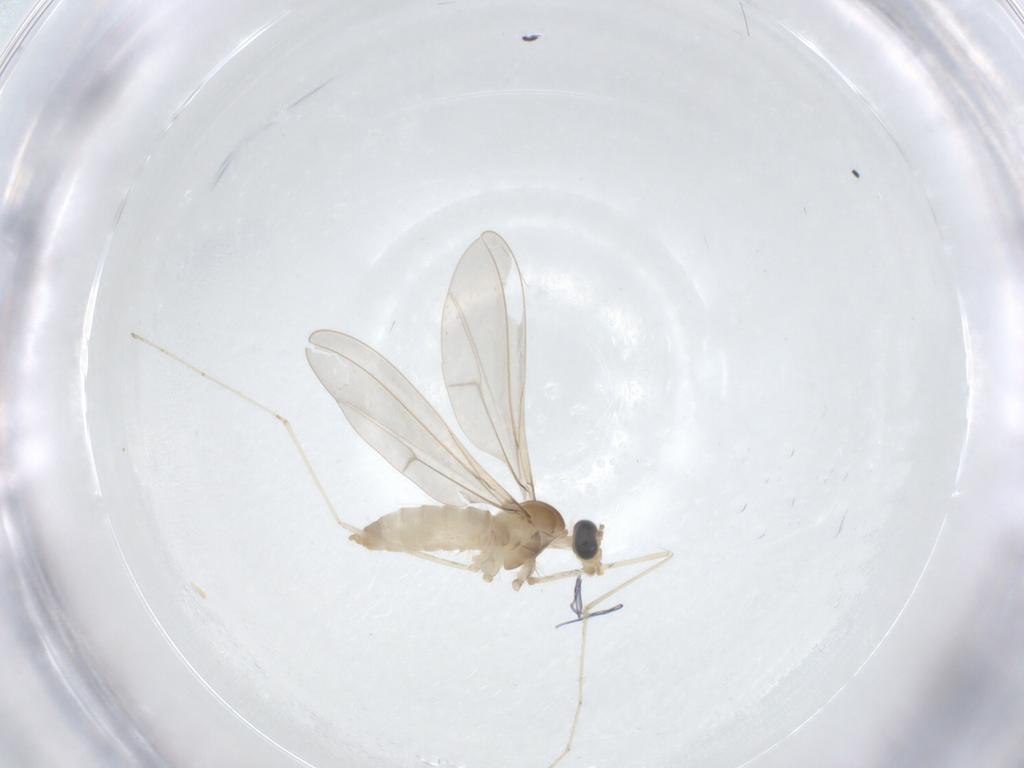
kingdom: Animalia
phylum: Arthropoda
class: Insecta
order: Diptera
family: Cecidomyiidae
